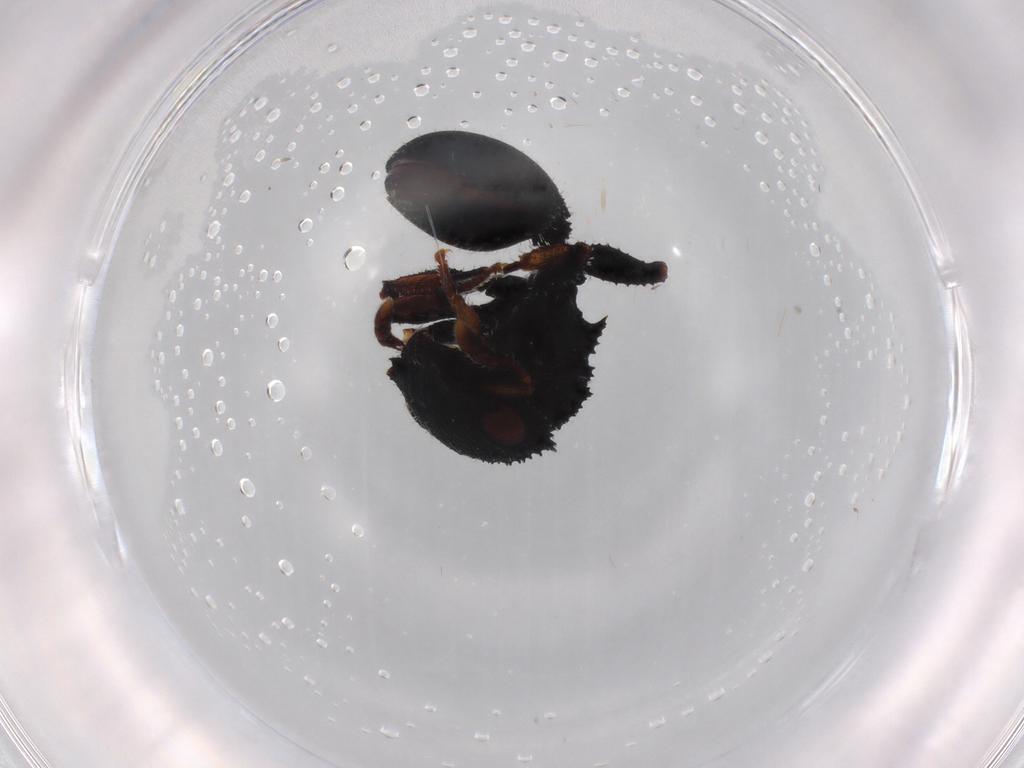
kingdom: Animalia
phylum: Arthropoda
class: Insecta
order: Hymenoptera
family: Formicidae
